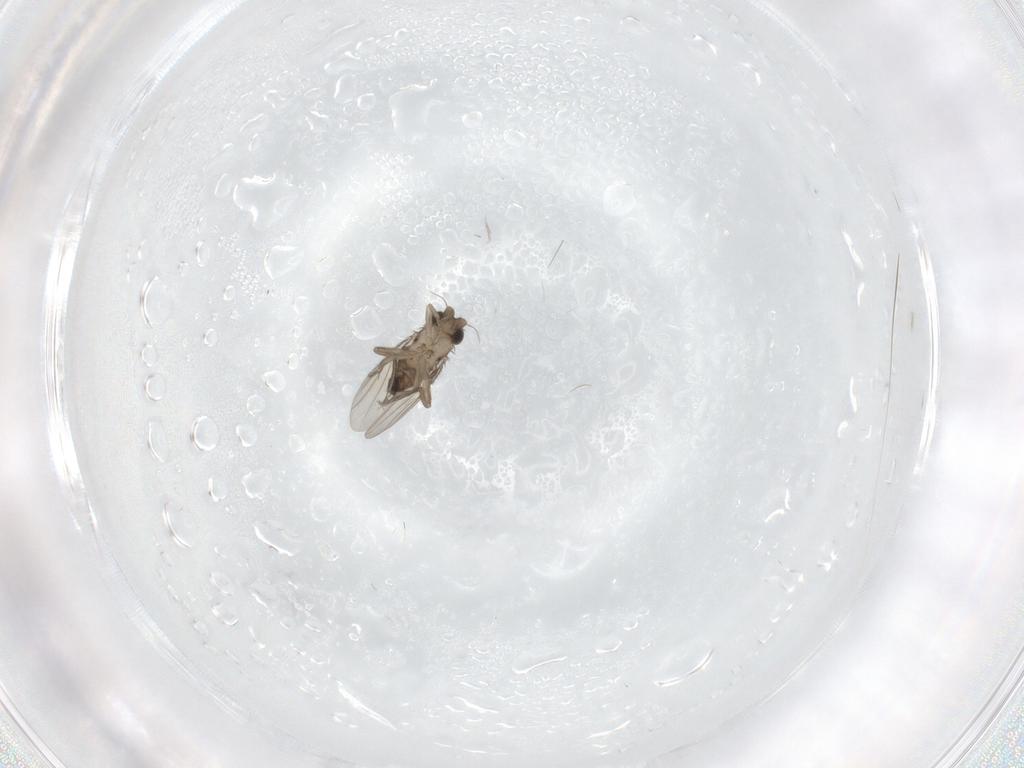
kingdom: Animalia
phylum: Arthropoda
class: Insecta
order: Diptera
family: Phoridae
